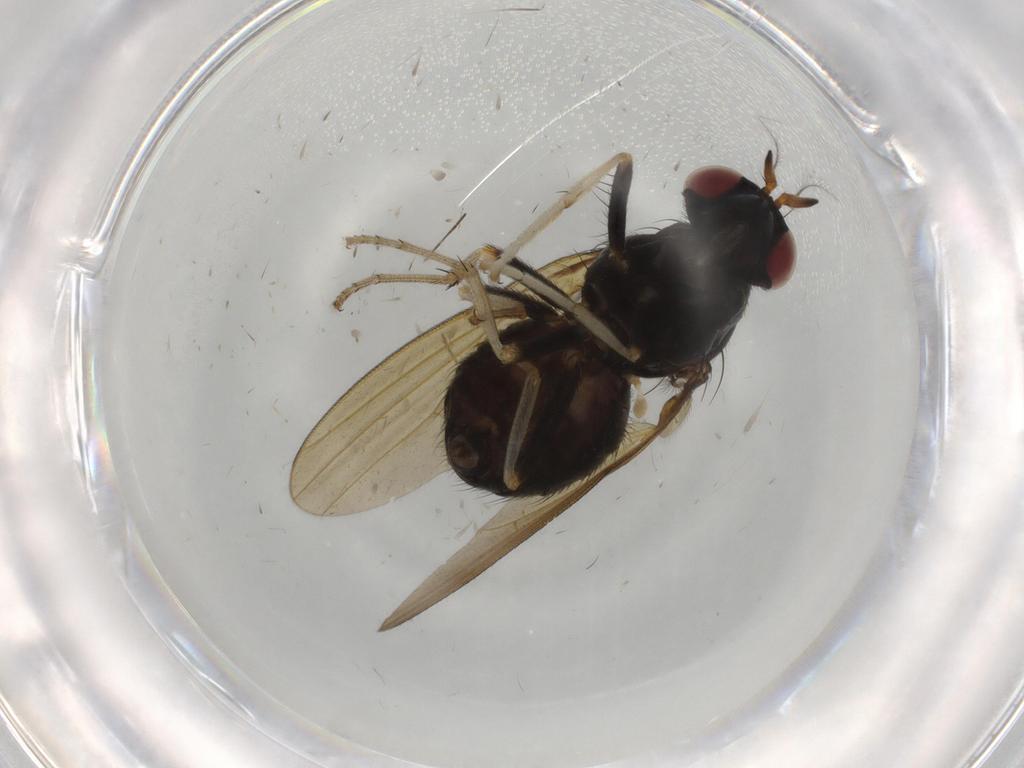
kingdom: Animalia
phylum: Arthropoda
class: Insecta
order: Diptera
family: Lauxaniidae
